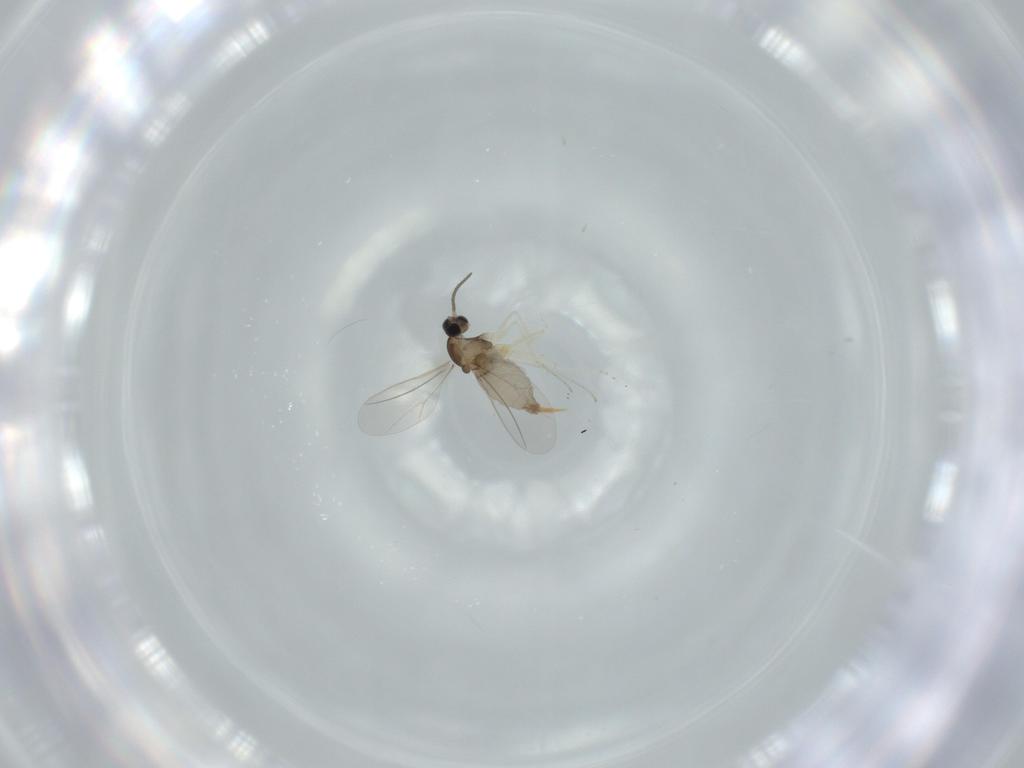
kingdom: Animalia
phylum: Arthropoda
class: Insecta
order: Diptera
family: Cecidomyiidae
